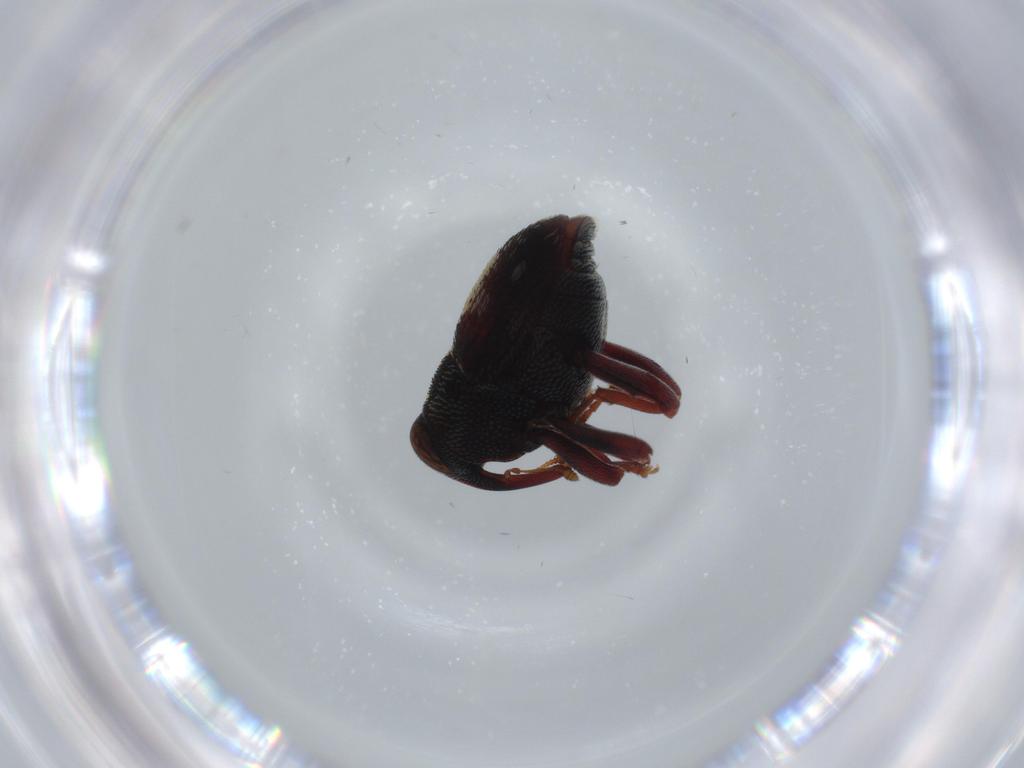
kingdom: Animalia
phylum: Arthropoda
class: Insecta
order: Coleoptera
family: Curculionidae
